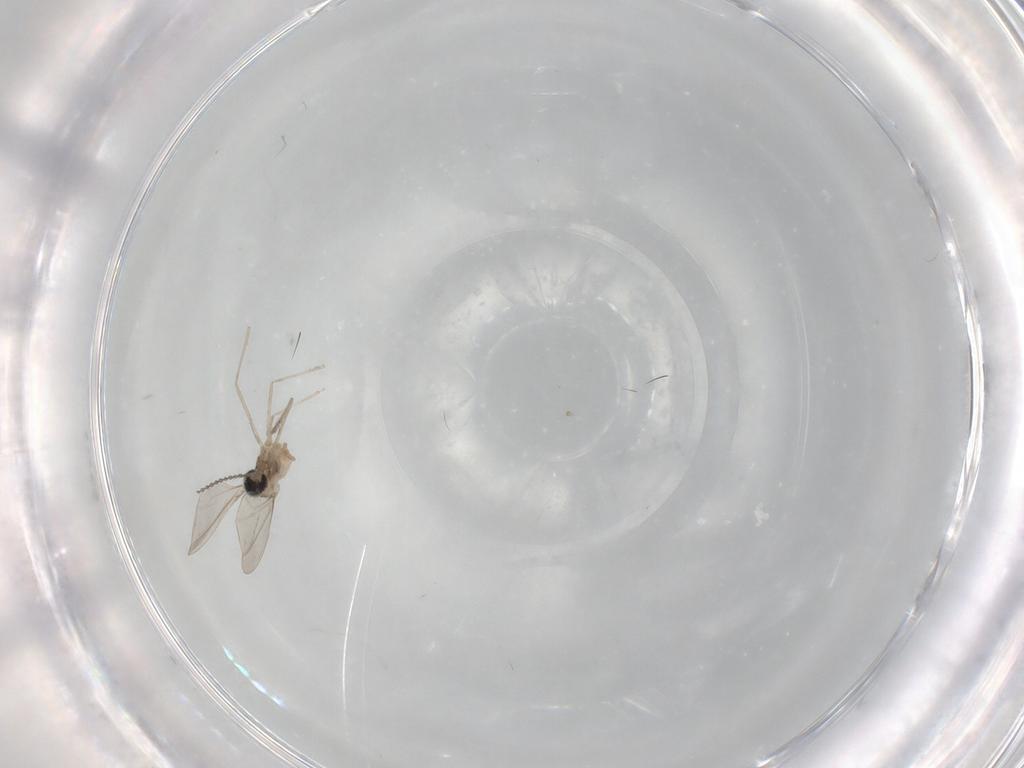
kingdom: Animalia
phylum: Arthropoda
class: Insecta
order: Diptera
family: Cecidomyiidae
